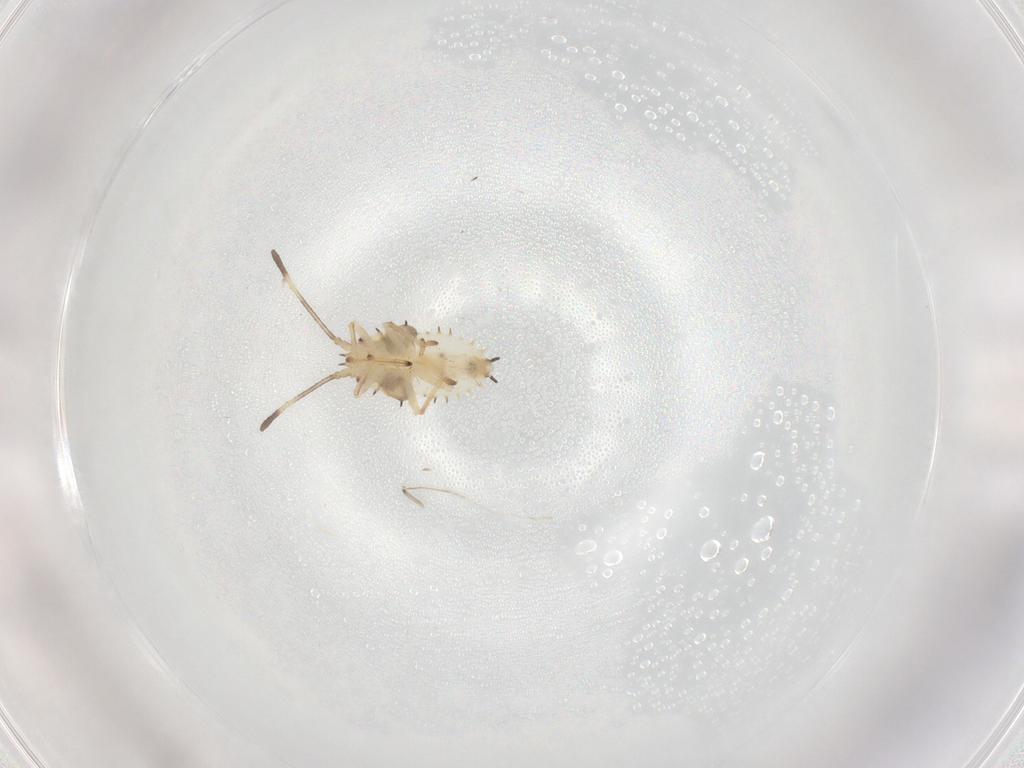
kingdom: Animalia
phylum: Arthropoda
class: Insecta
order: Hemiptera
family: Tingidae
